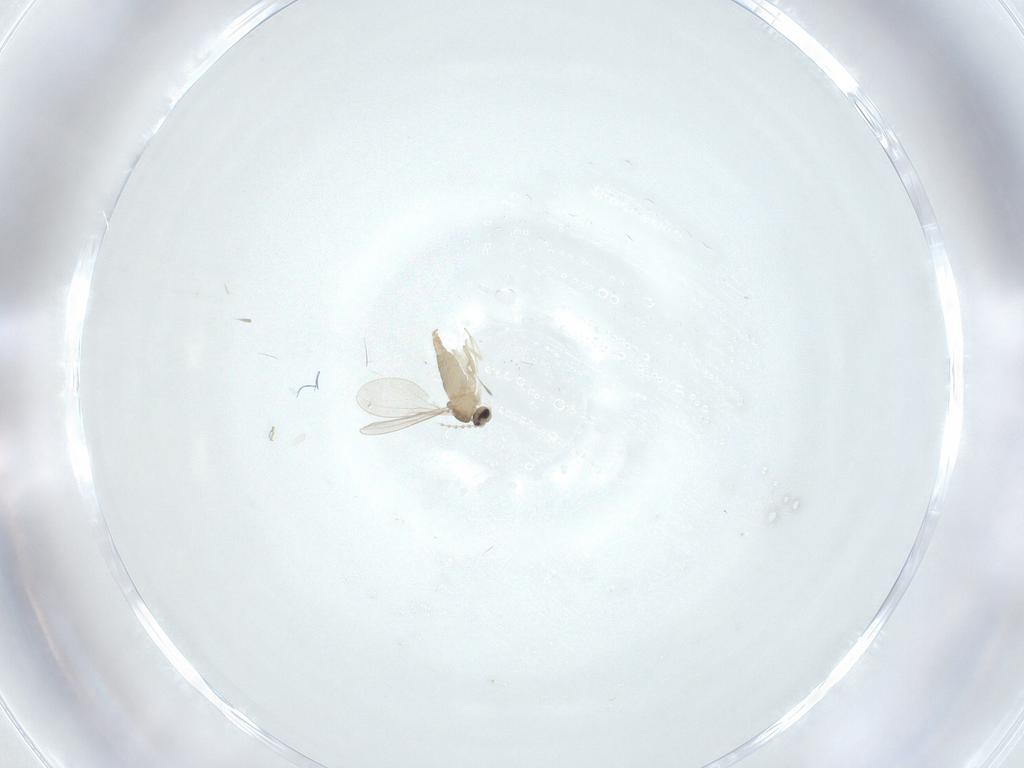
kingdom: Animalia
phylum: Arthropoda
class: Insecta
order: Diptera
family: Cecidomyiidae
